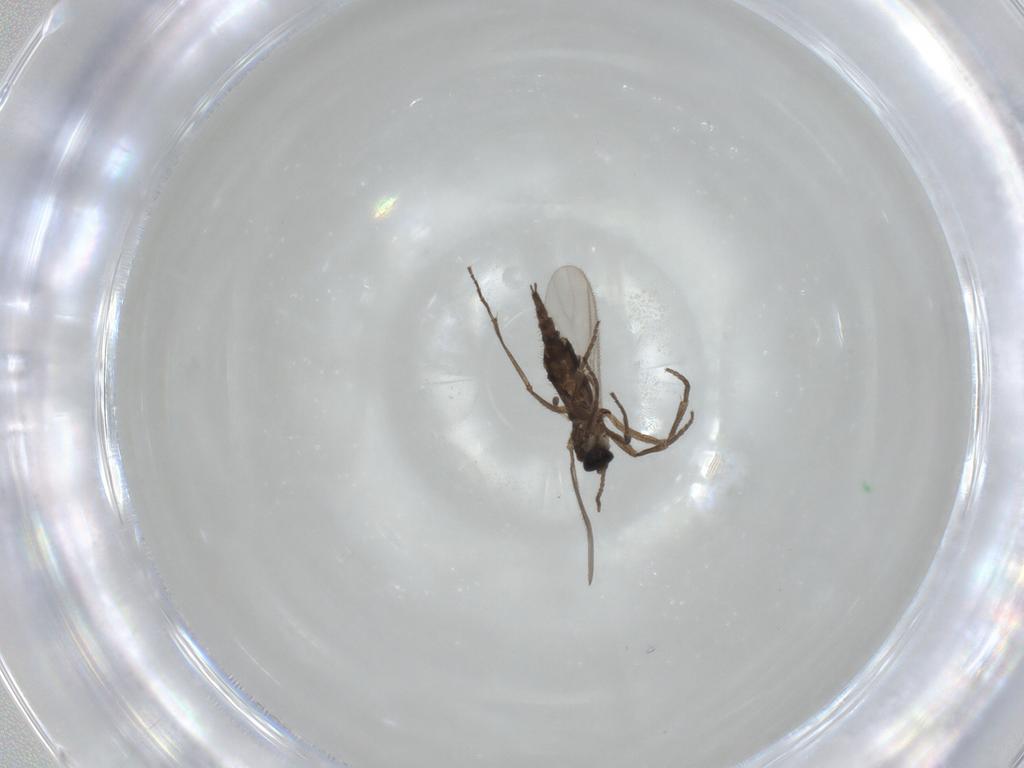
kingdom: Animalia
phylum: Arthropoda
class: Insecta
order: Diptera
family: Sciaridae
